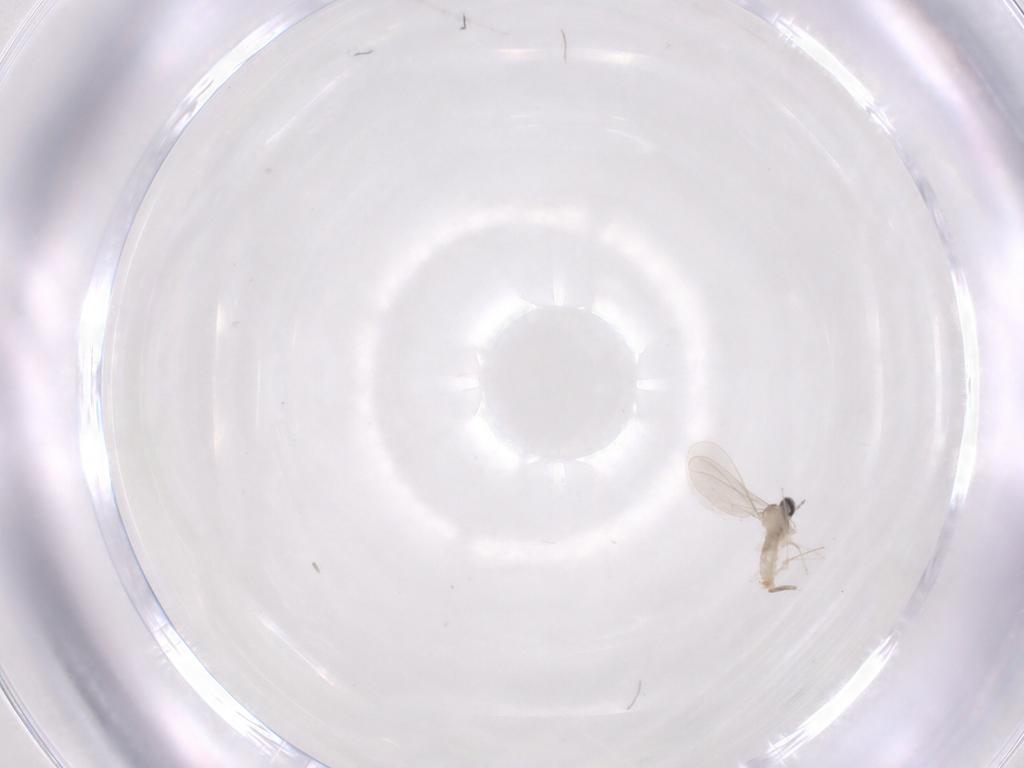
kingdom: Animalia
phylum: Arthropoda
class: Insecta
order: Diptera
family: Cecidomyiidae
